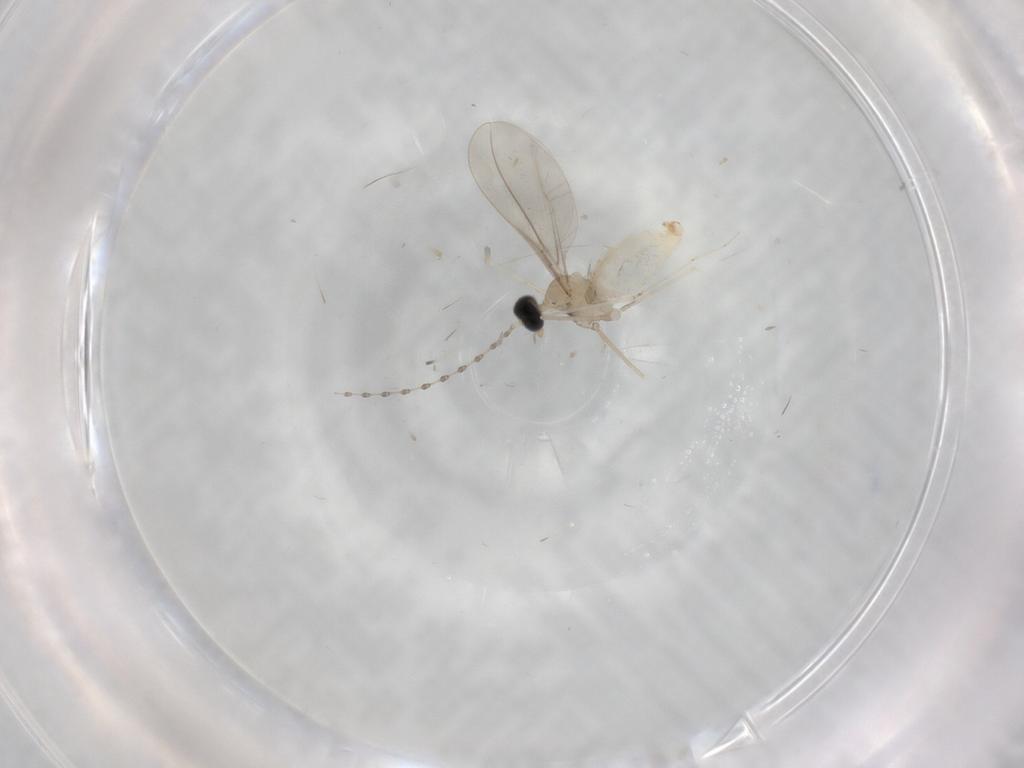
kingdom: Animalia
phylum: Arthropoda
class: Insecta
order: Diptera
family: Cecidomyiidae
